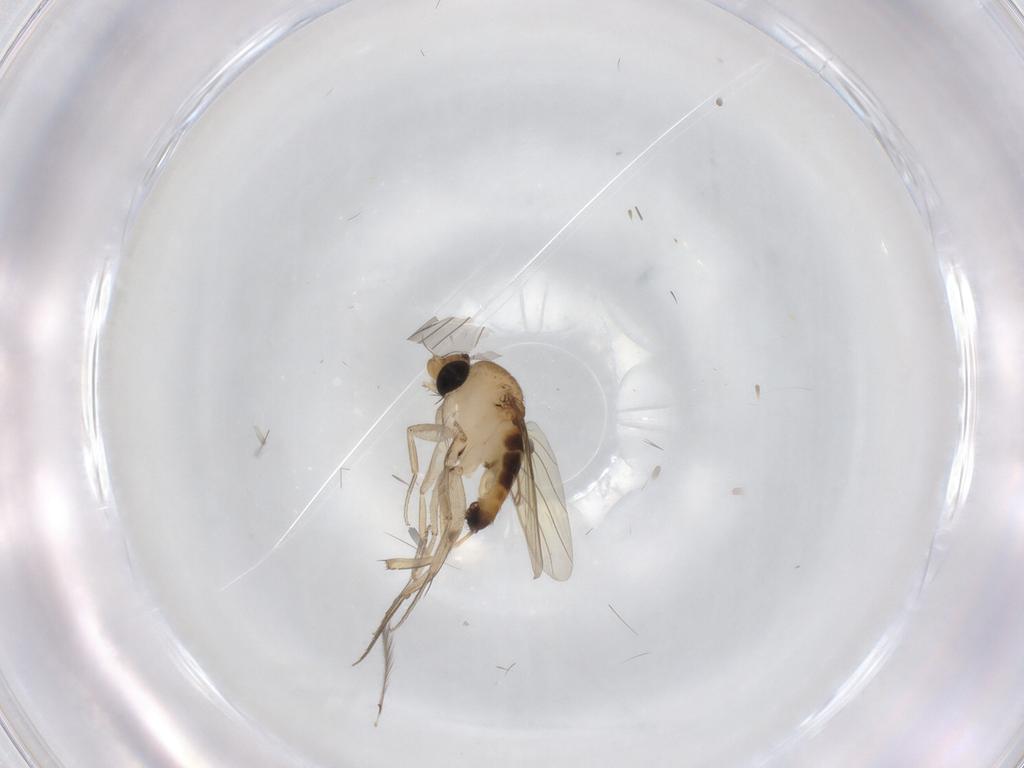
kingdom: Animalia
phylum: Arthropoda
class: Insecta
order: Diptera
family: Phoridae
